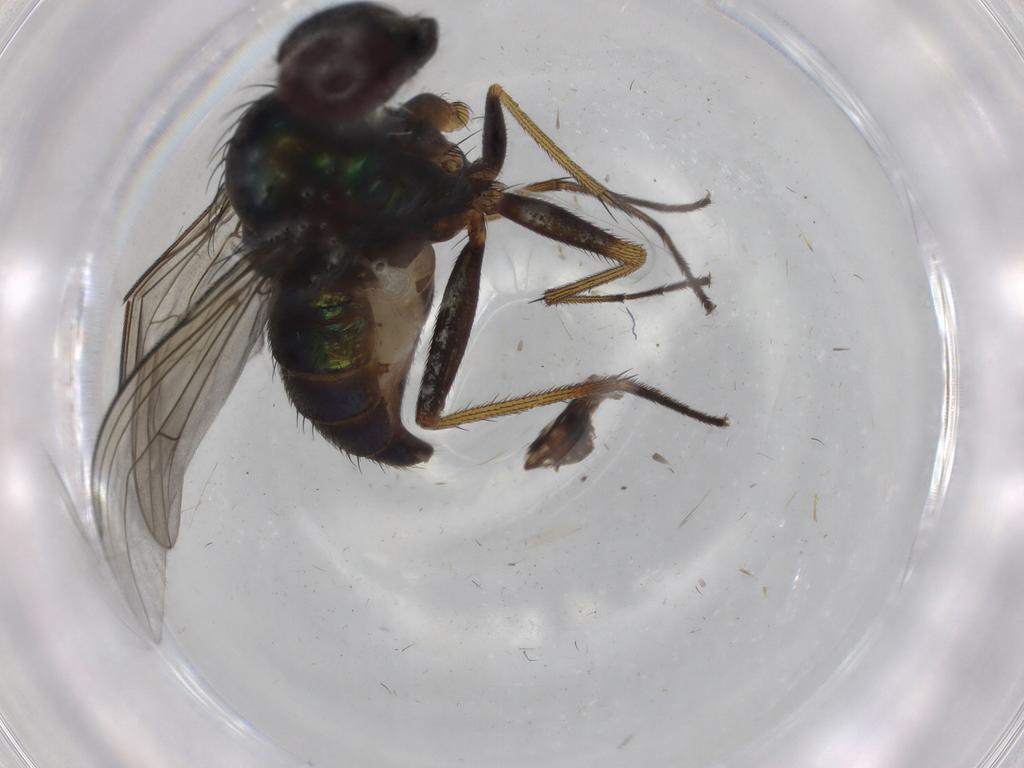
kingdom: Animalia
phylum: Arthropoda
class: Insecta
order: Diptera
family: Dolichopodidae
